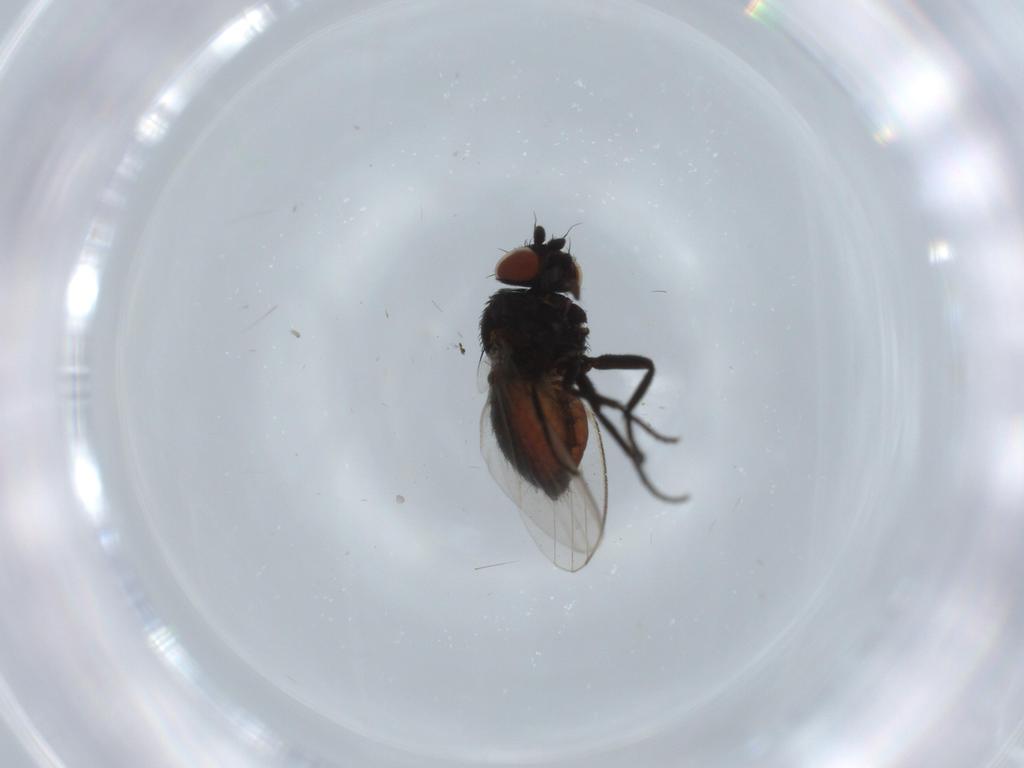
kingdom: Animalia
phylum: Arthropoda
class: Insecta
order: Diptera
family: Milichiidae
